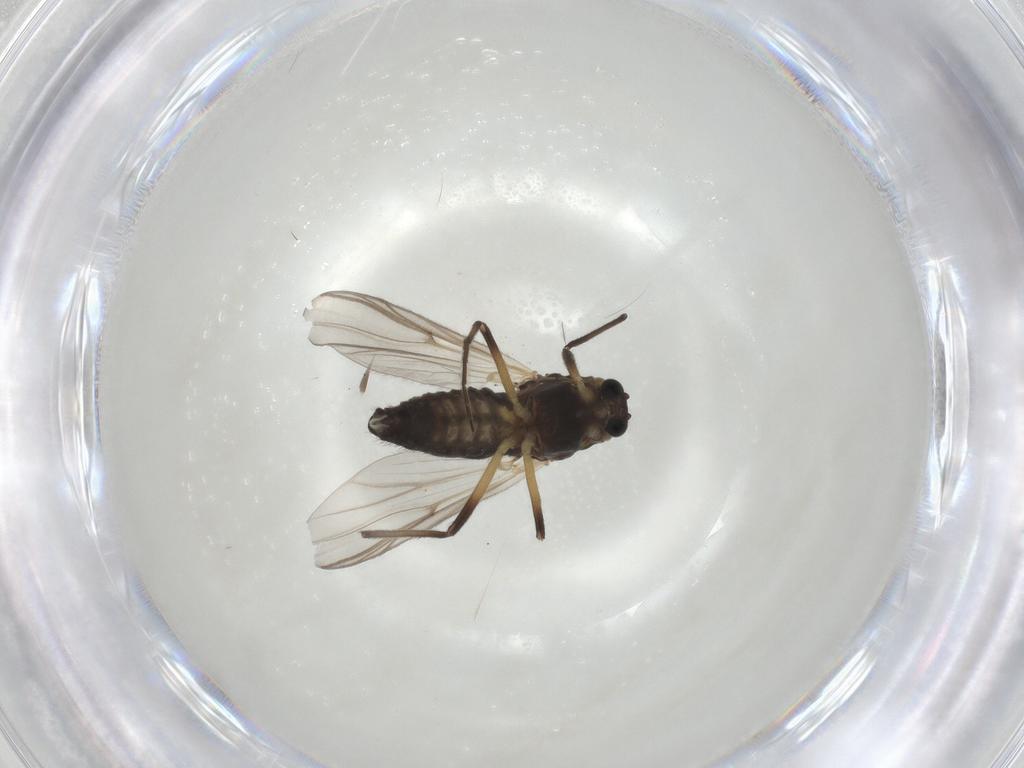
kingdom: Animalia
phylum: Arthropoda
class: Insecta
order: Diptera
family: Chironomidae
